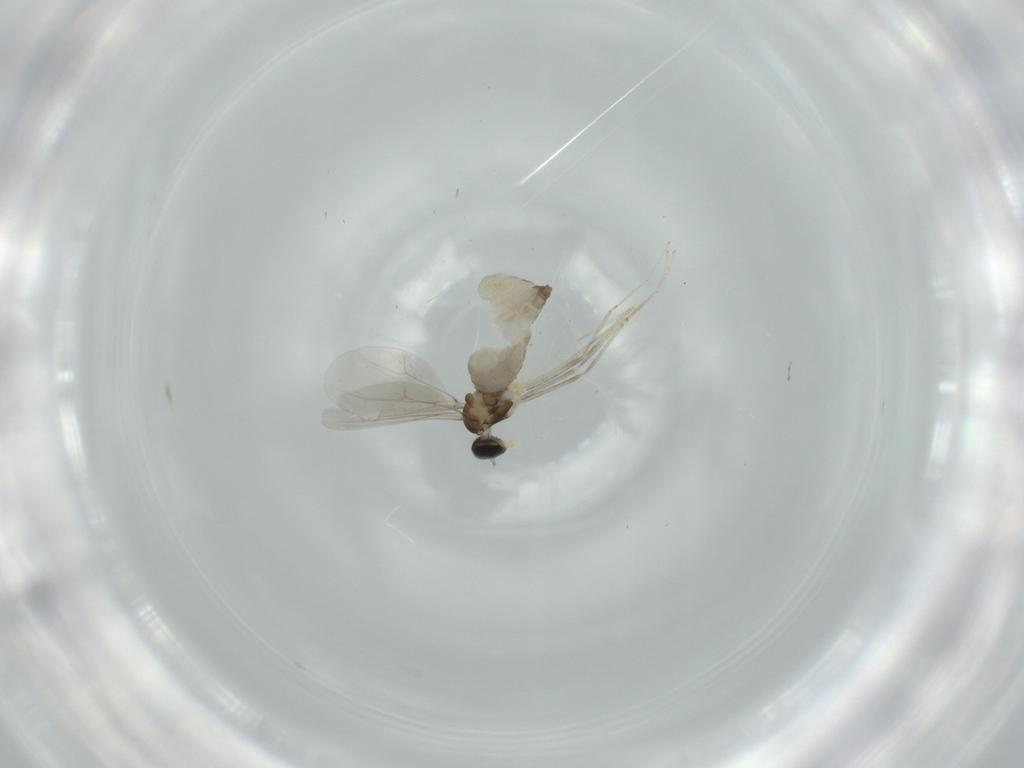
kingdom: Animalia
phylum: Arthropoda
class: Insecta
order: Diptera
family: Cecidomyiidae
